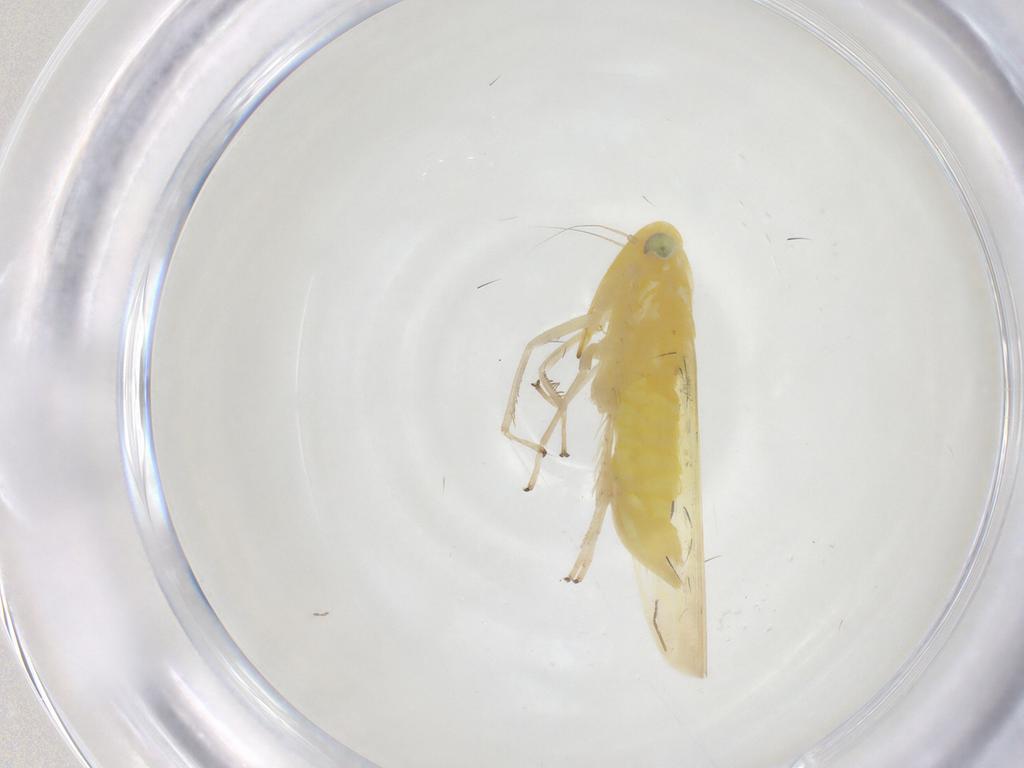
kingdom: Animalia
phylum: Arthropoda
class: Insecta
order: Hemiptera
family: Cicadellidae
